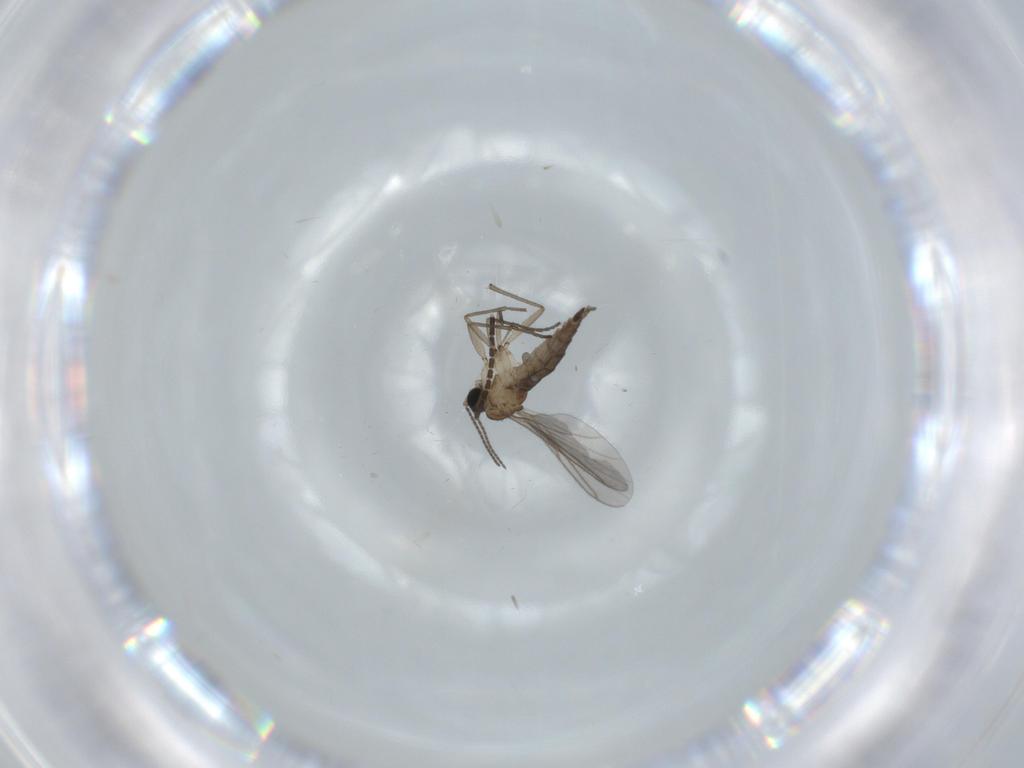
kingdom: Animalia
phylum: Arthropoda
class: Insecta
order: Diptera
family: Sciaridae
